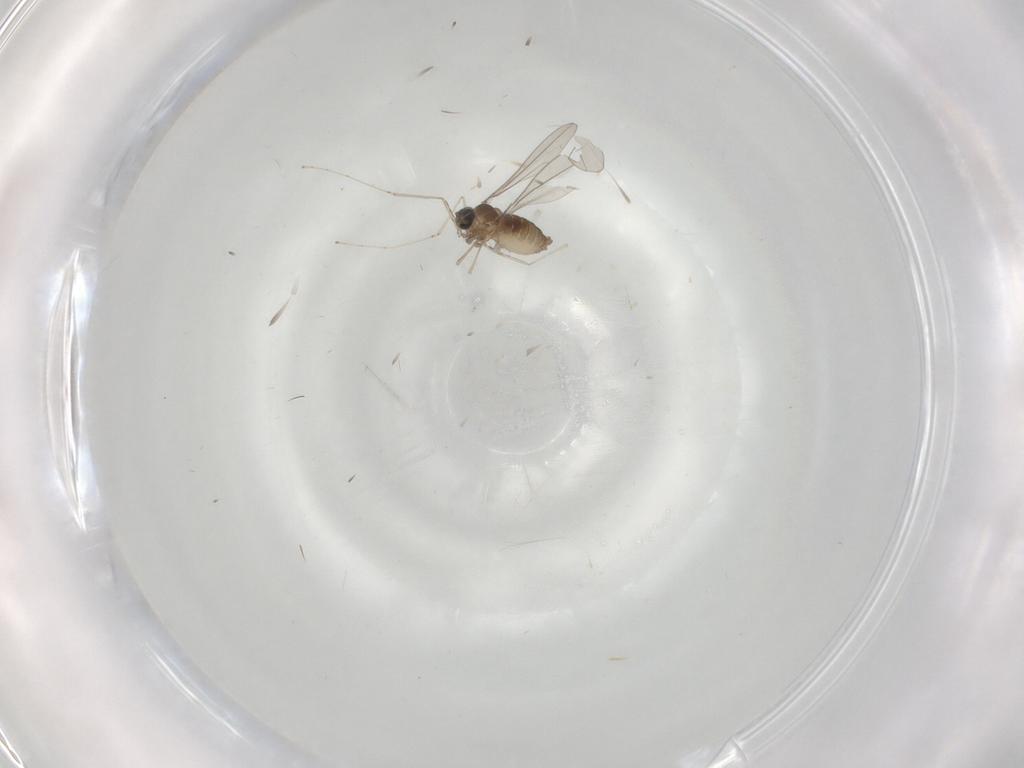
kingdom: Animalia
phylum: Arthropoda
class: Insecta
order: Diptera
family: Cecidomyiidae
